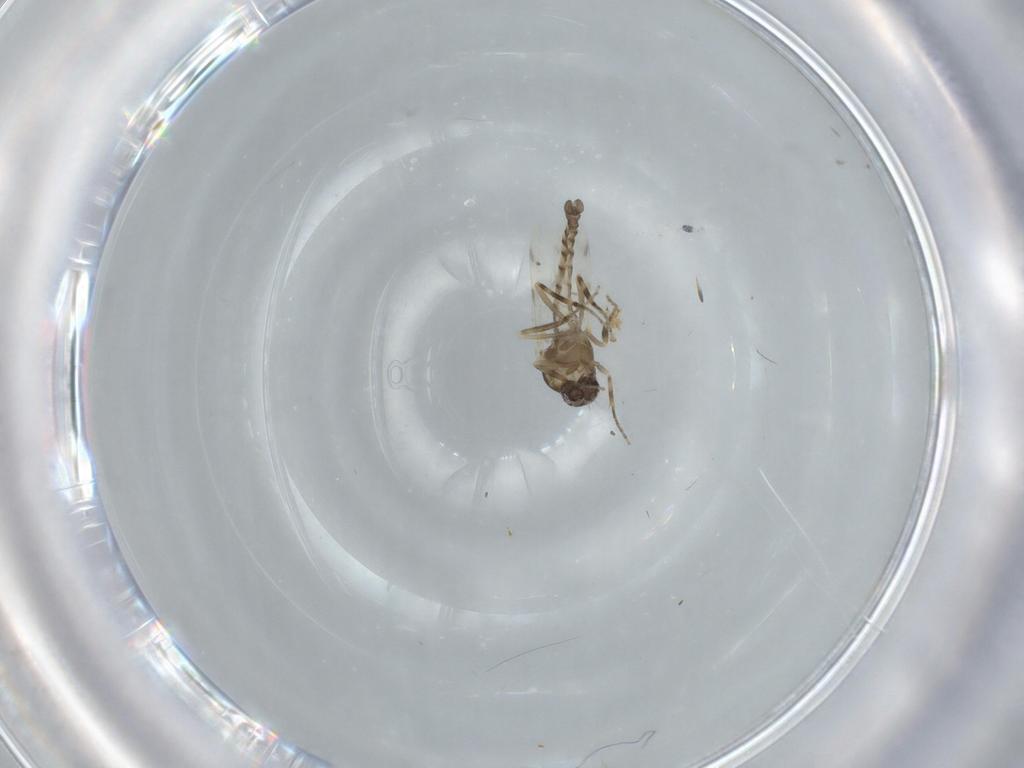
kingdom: Animalia
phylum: Arthropoda
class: Insecta
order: Diptera
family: Ceratopogonidae
